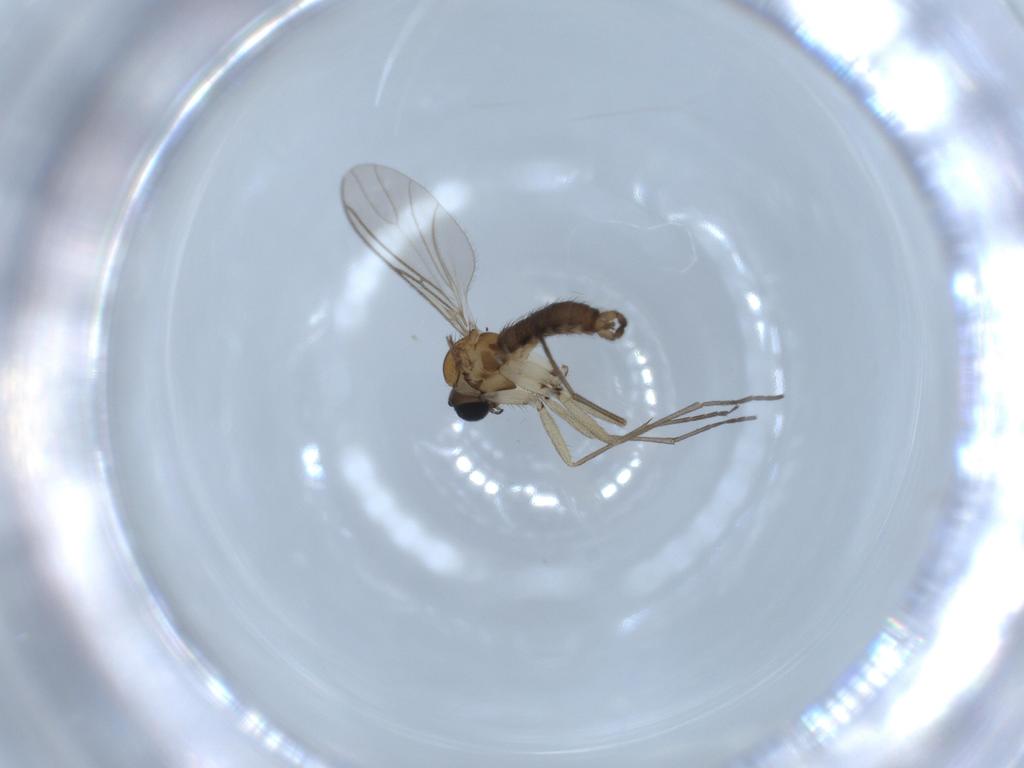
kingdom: Animalia
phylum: Arthropoda
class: Insecta
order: Diptera
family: Sciaridae
